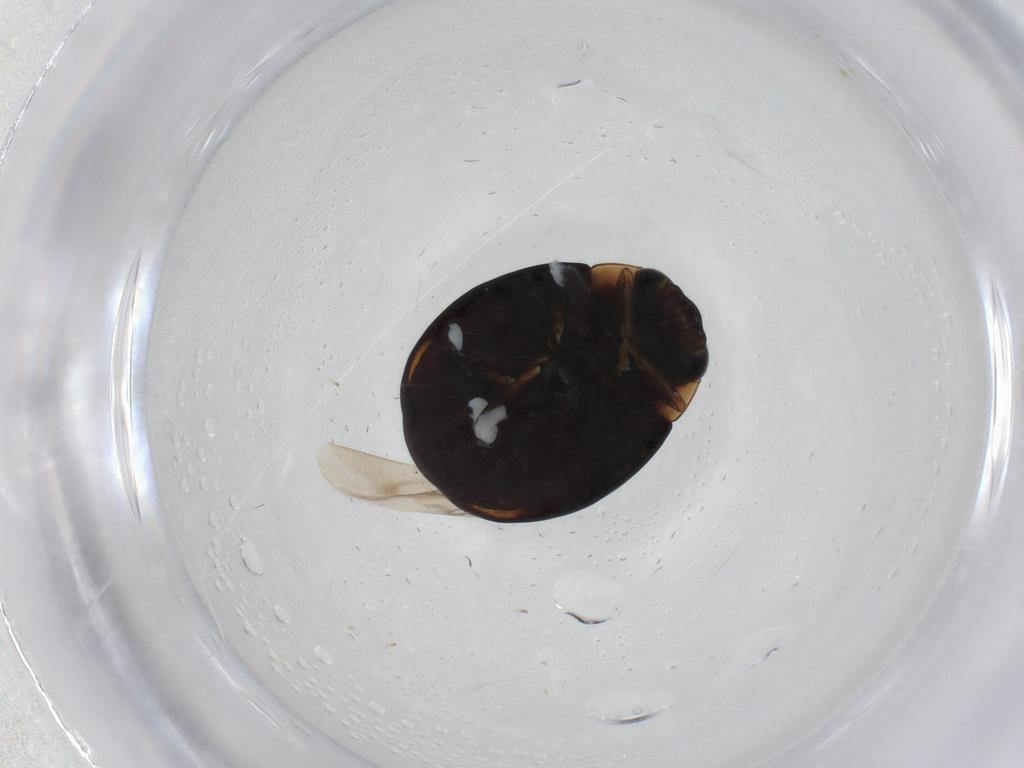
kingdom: Animalia
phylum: Arthropoda
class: Insecta
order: Coleoptera
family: Coccinellidae
